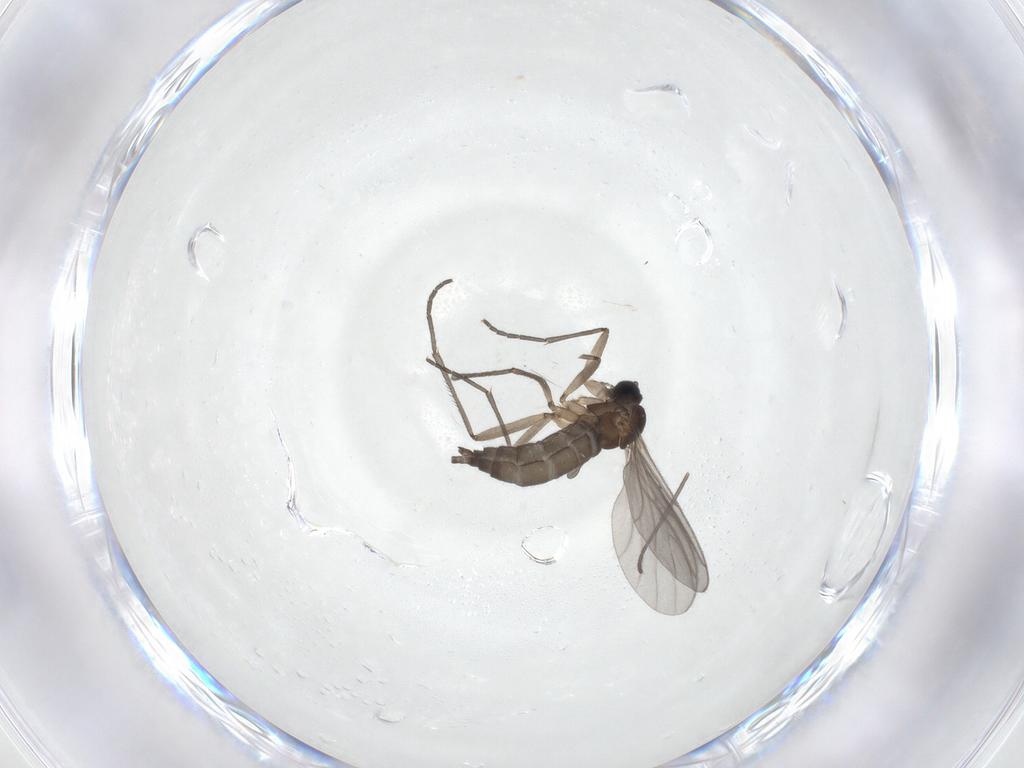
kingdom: Animalia
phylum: Arthropoda
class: Insecta
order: Diptera
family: Sciaridae
